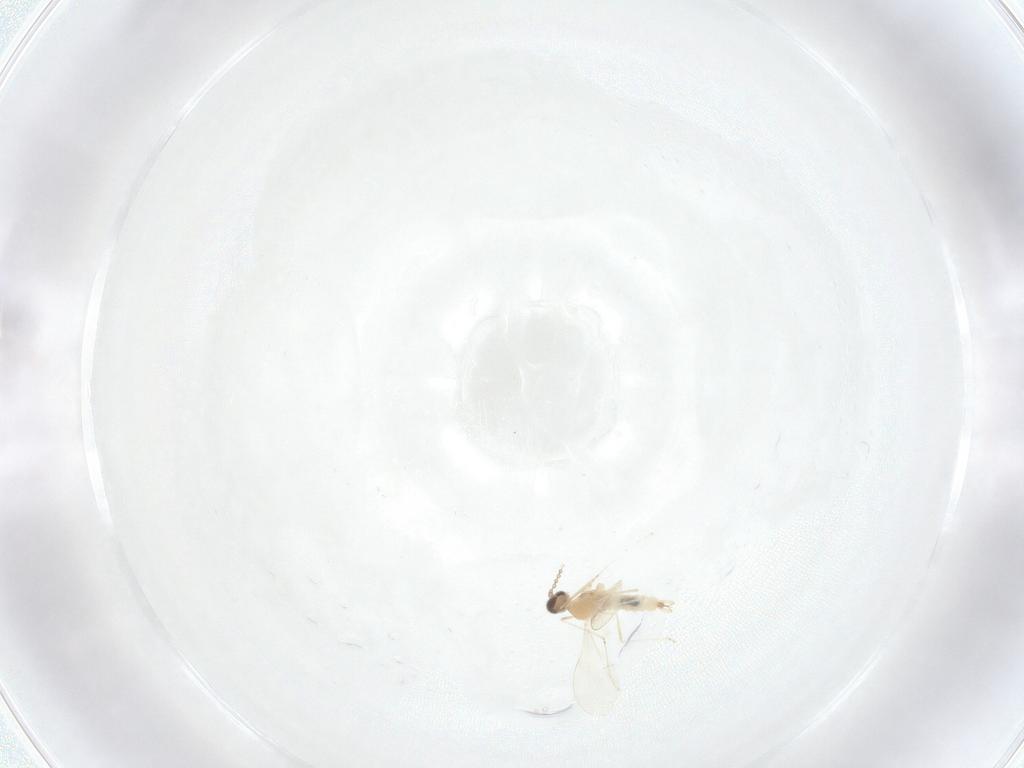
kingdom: Animalia
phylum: Arthropoda
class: Insecta
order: Diptera
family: Cecidomyiidae
